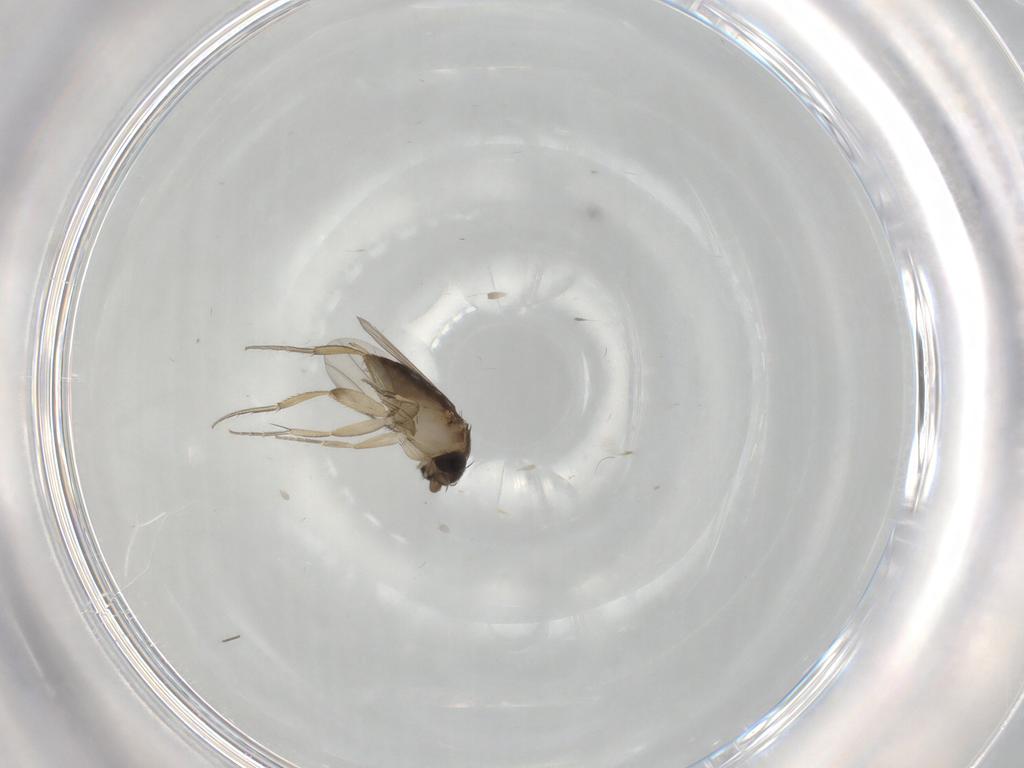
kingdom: Animalia
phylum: Arthropoda
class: Insecta
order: Diptera
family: Phoridae
